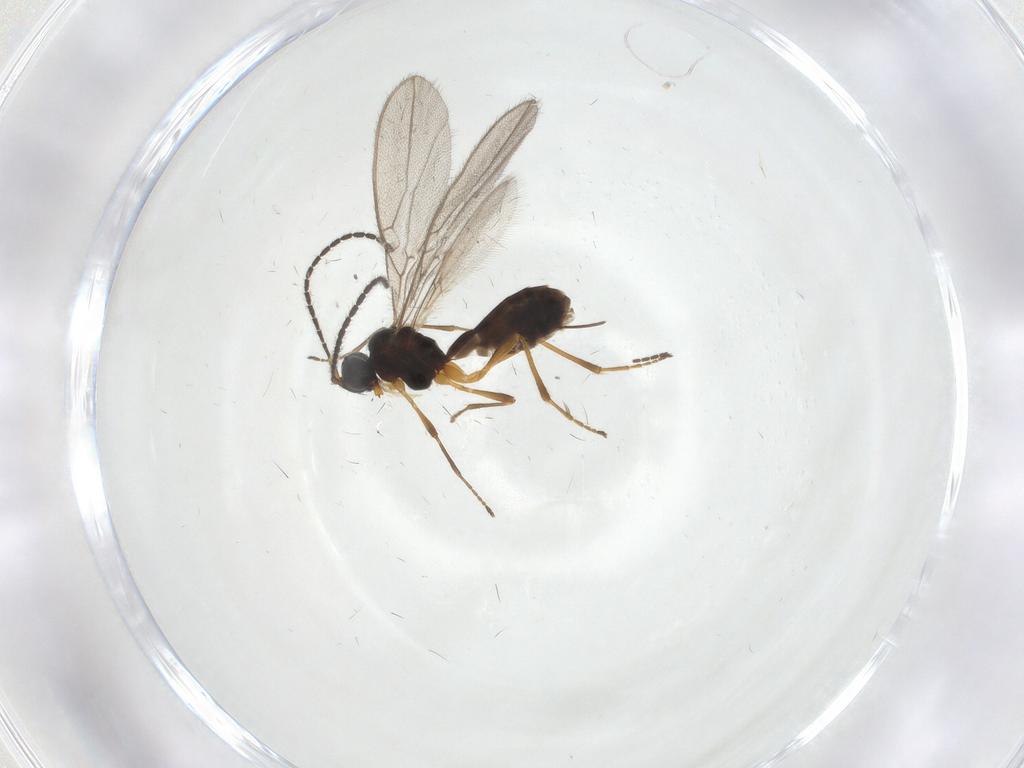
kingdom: Animalia
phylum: Arthropoda
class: Insecta
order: Hymenoptera
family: Braconidae
